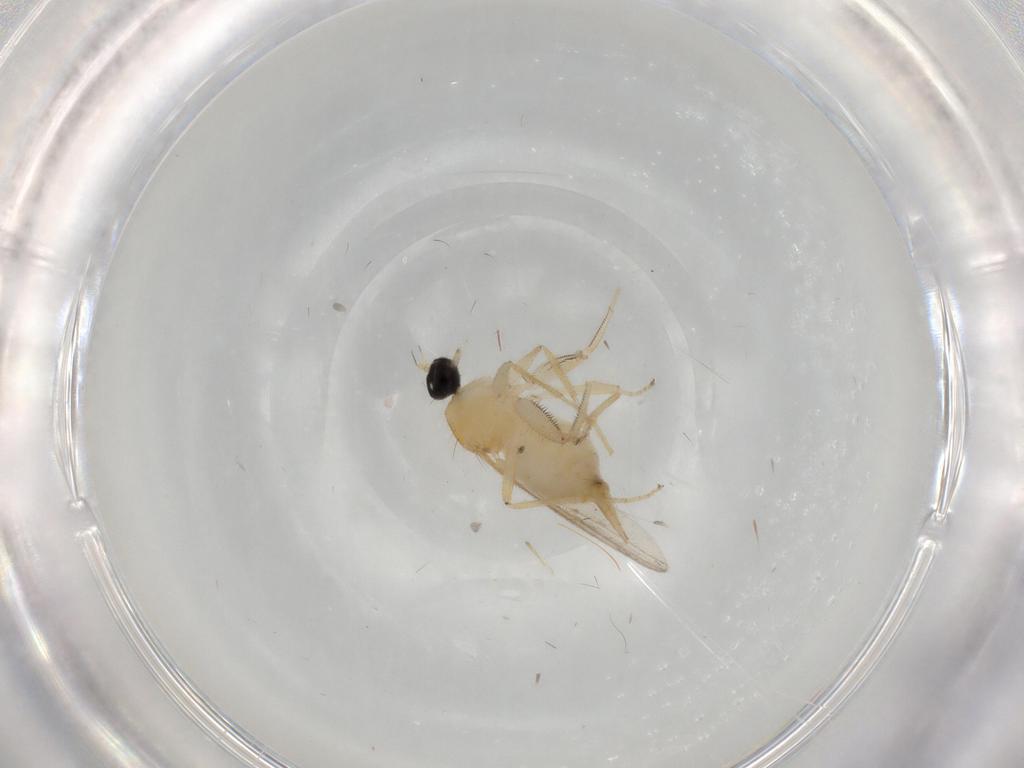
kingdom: Animalia
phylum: Arthropoda
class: Insecta
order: Diptera
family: Hybotidae
